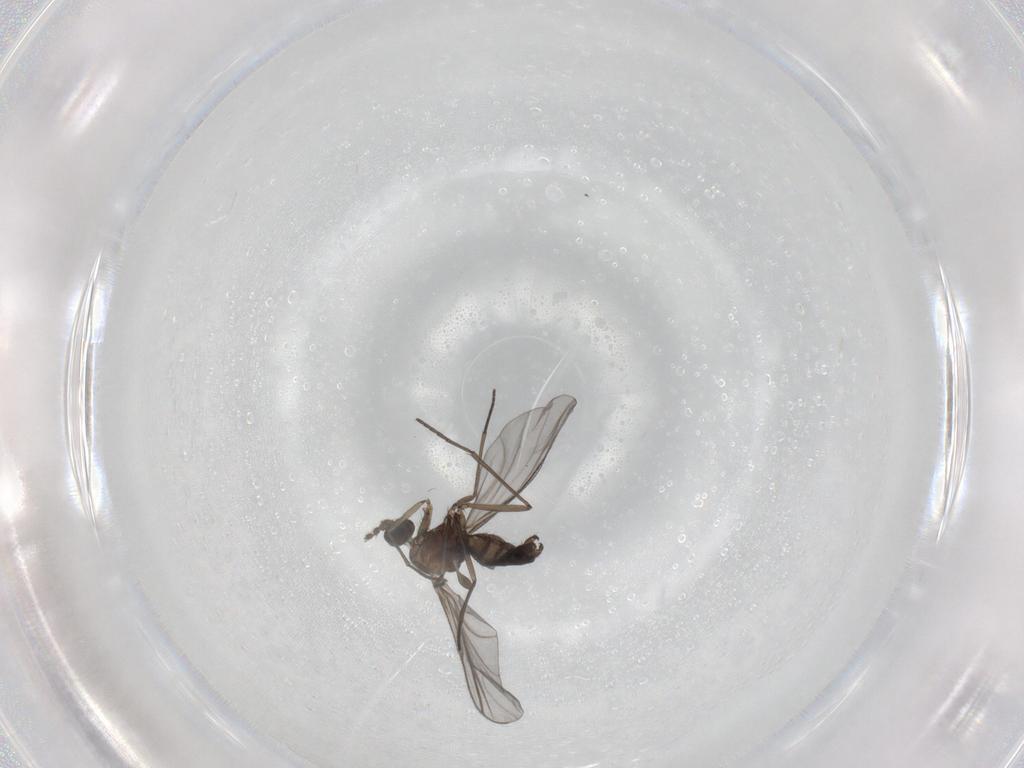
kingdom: Animalia
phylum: Arthropoda
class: Insecta
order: Diptera
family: Sciaridae
